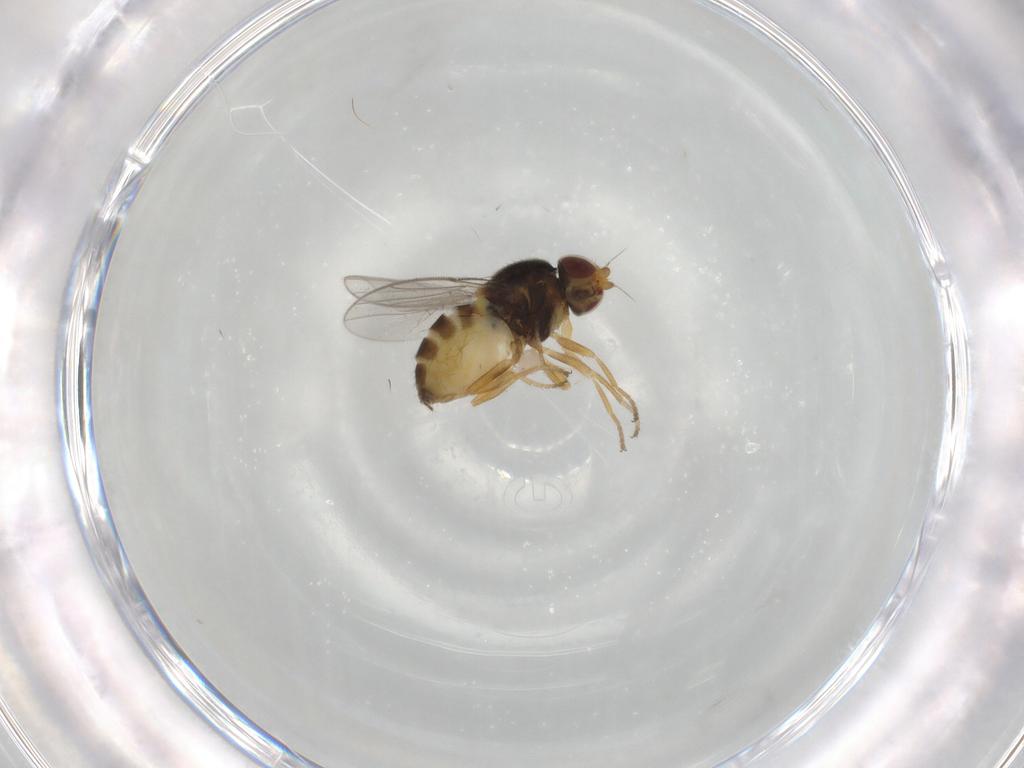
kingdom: Animalia
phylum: Arthropoda
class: Insecta
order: Diptera
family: Chloropidae
